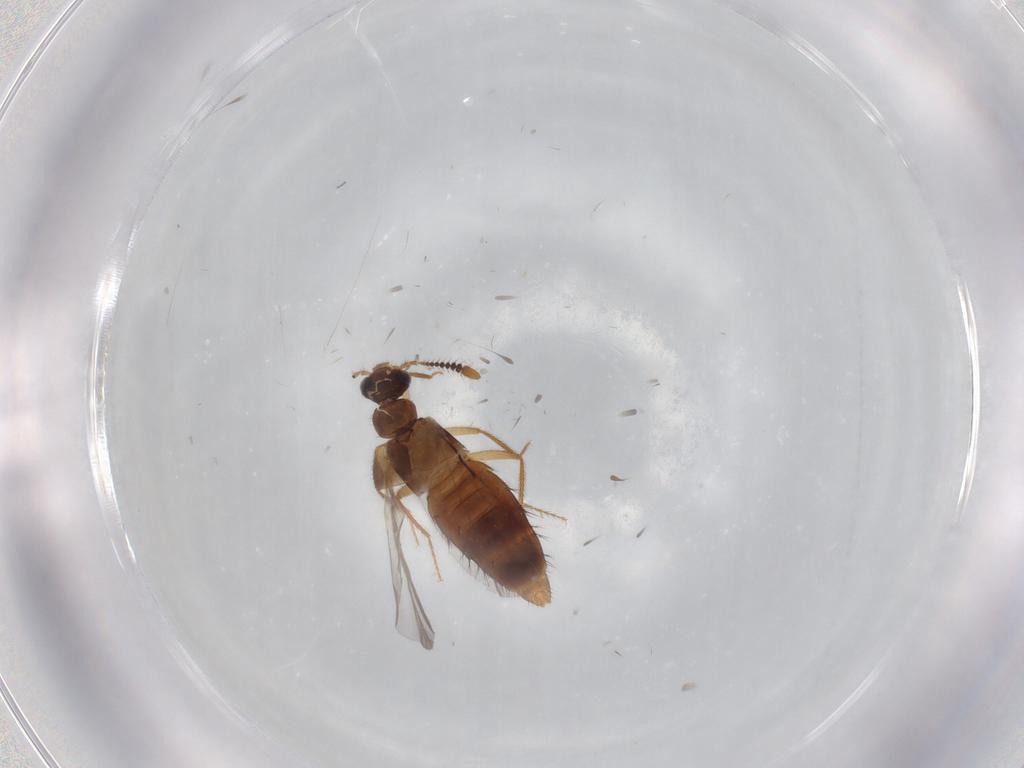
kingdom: Animalia
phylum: Arthropoda
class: Insecta
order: Coleoptera
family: Staphylinidae
